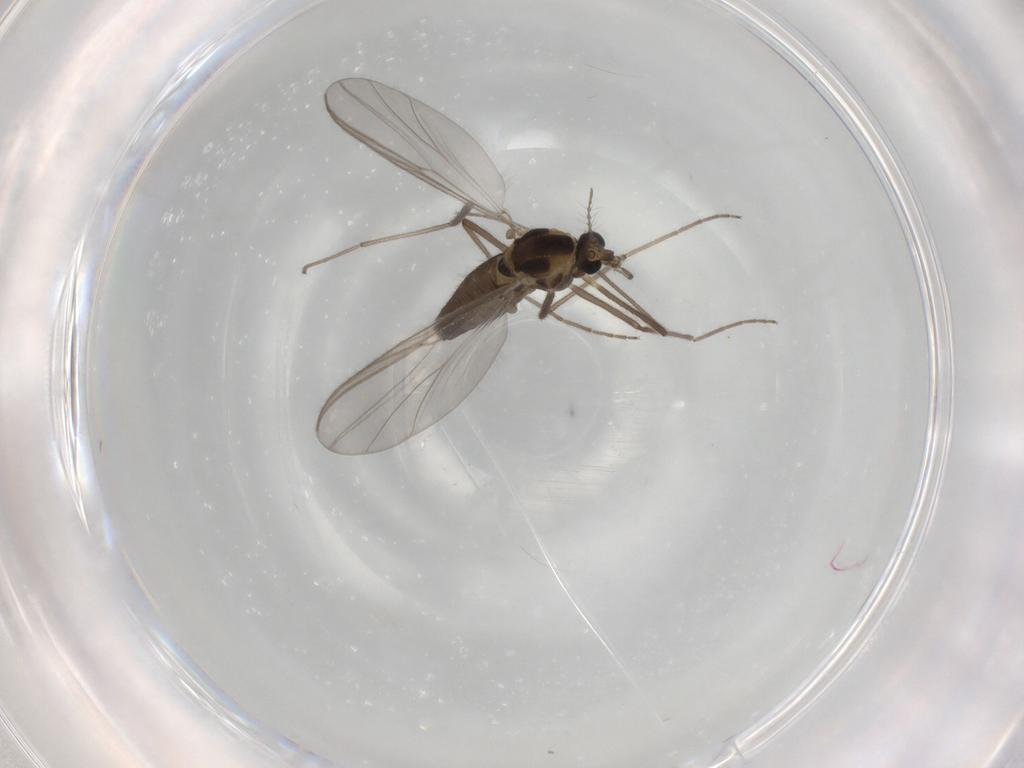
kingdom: Animalia
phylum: Arthropoda
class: Insecta
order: Diptera
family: Chironomidae
